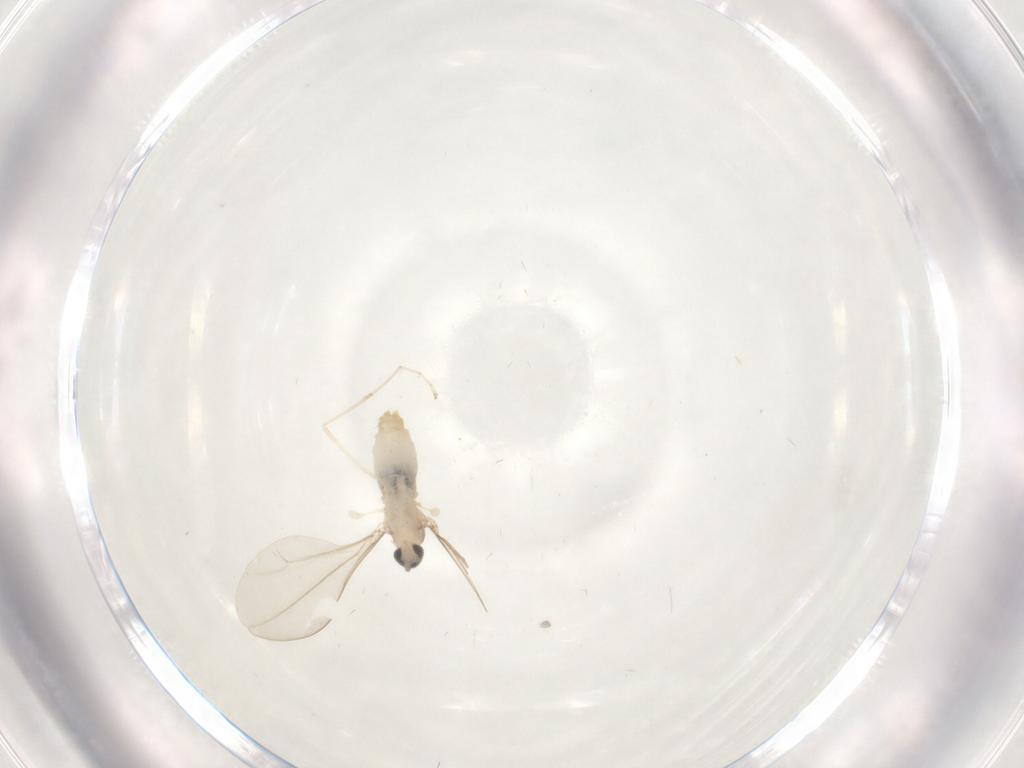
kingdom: Animalia
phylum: Arthropoda
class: Insecta
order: Diptera
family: Cecidomyiidae
